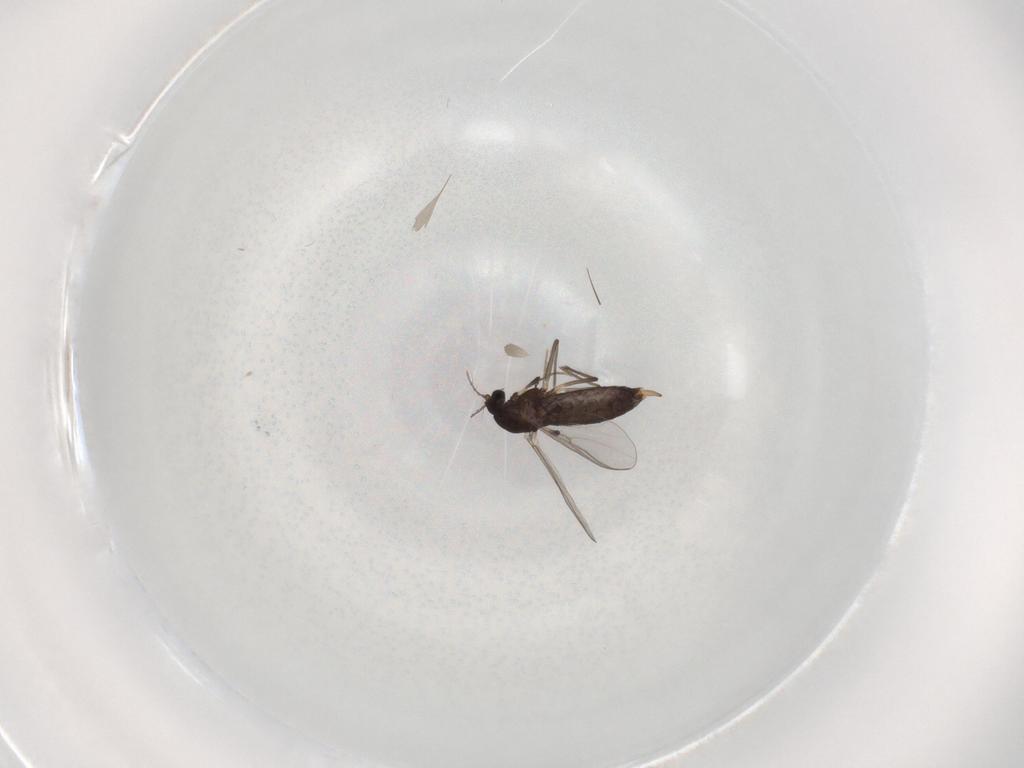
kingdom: Animalia
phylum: Arthropoda
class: Insecta
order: Diptera
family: Chironomidae
